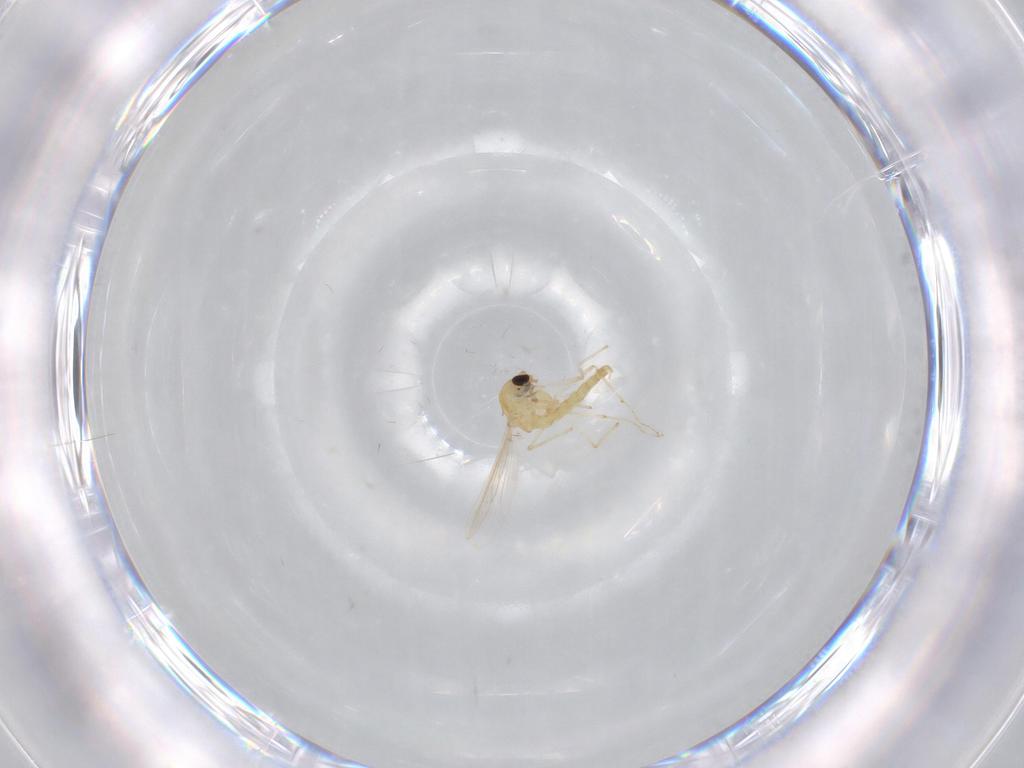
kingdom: Animalia
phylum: Arthropoda
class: Insecta
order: Diptera
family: Chironomidae
